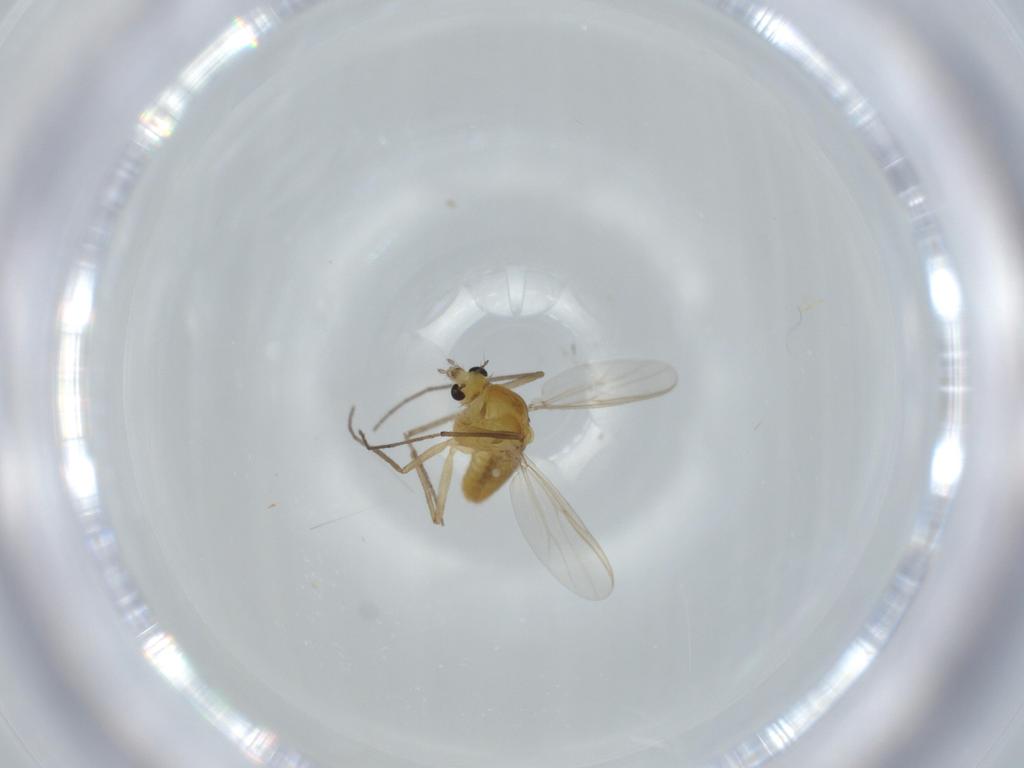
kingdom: Animalia
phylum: Arthropoda
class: Insecta
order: Diptera
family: Chironomidae
